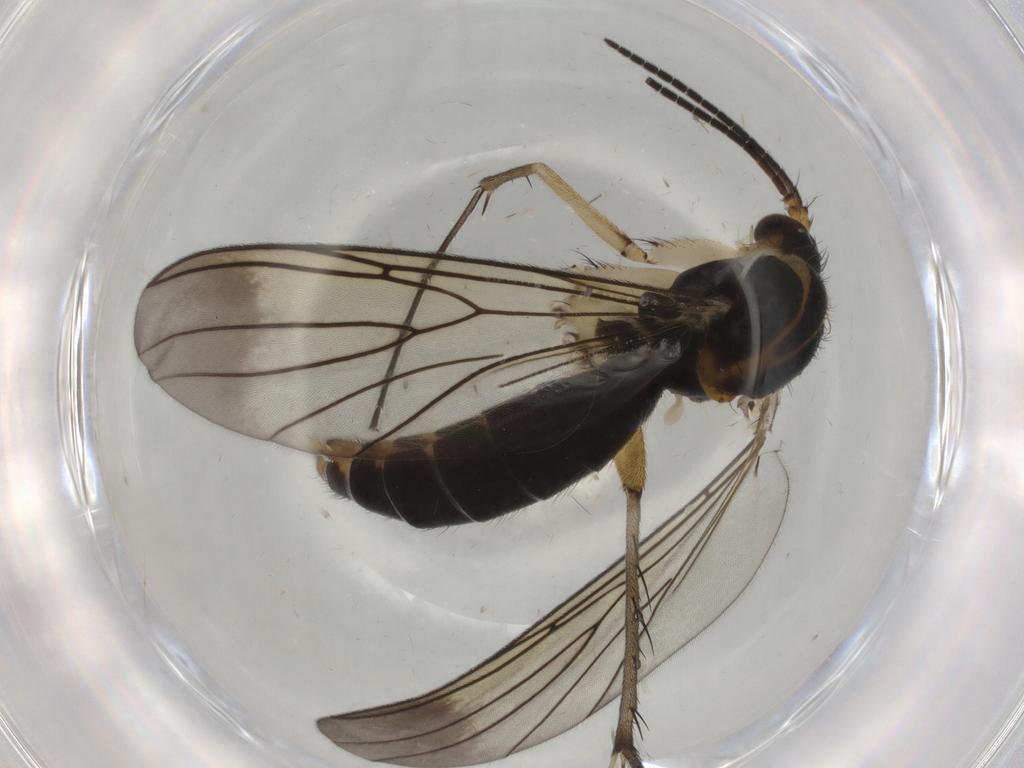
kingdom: Animalia
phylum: Arthropoda
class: Insecta
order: Diptera
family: Mycetophilidae
